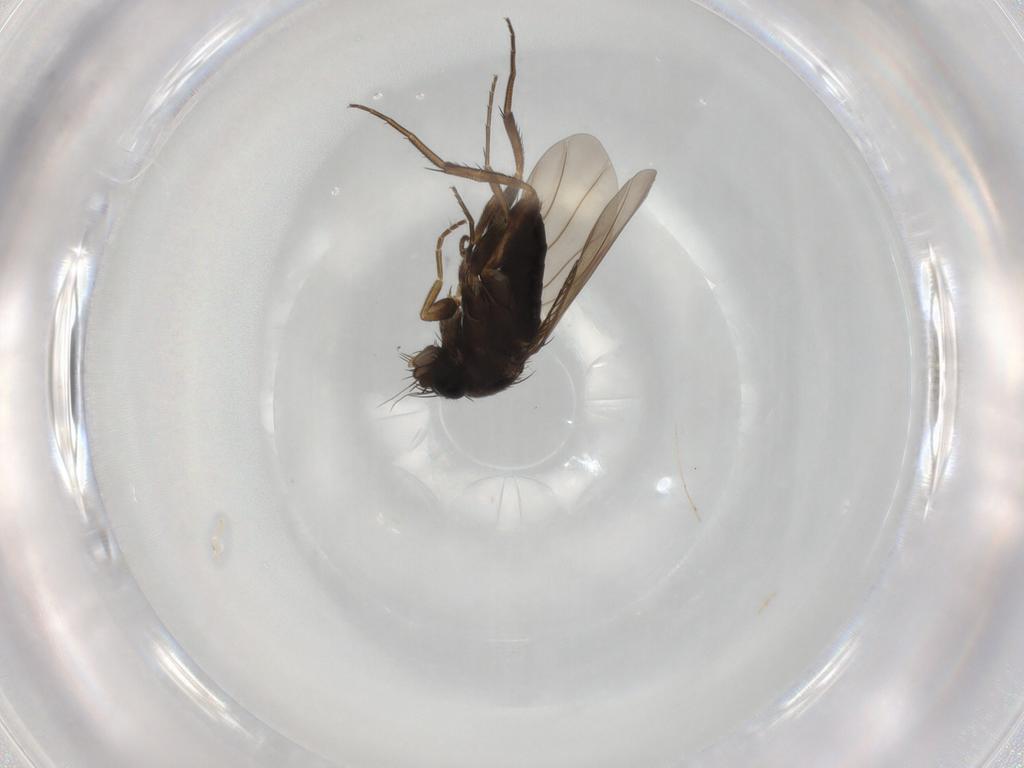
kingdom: Animalia
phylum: Arthropoda
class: Insecta
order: Diptera
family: Phoridae
